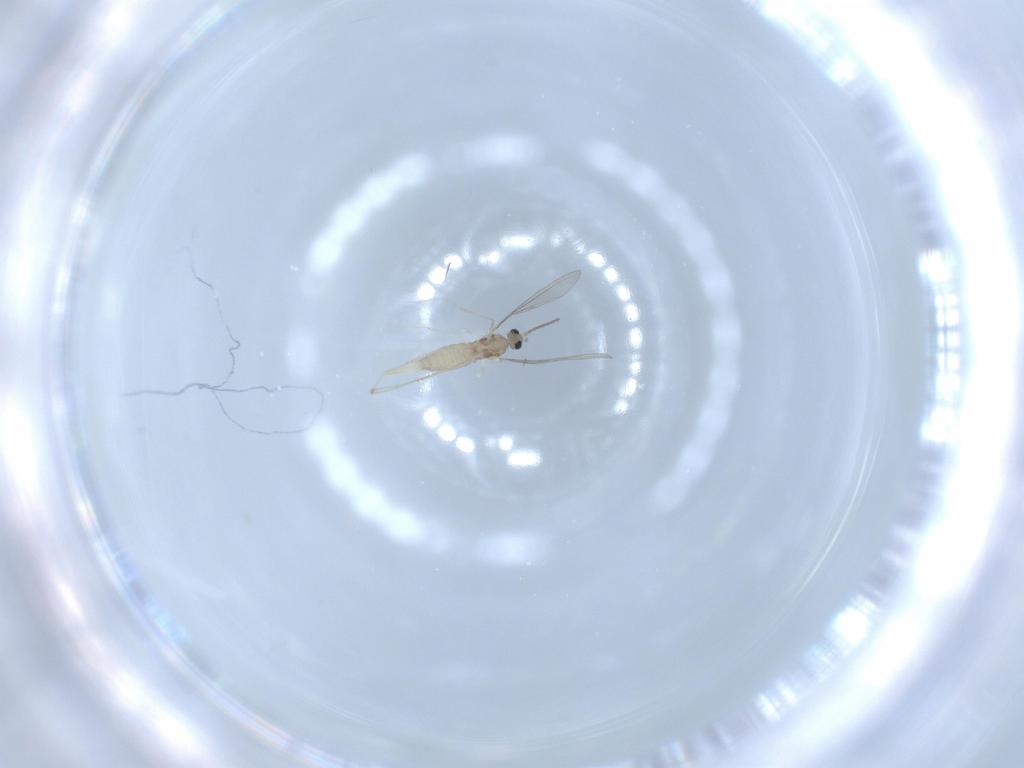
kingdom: Animalia
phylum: Arthropoda
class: Insecta
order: Diptera
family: Cecidomyiidae
